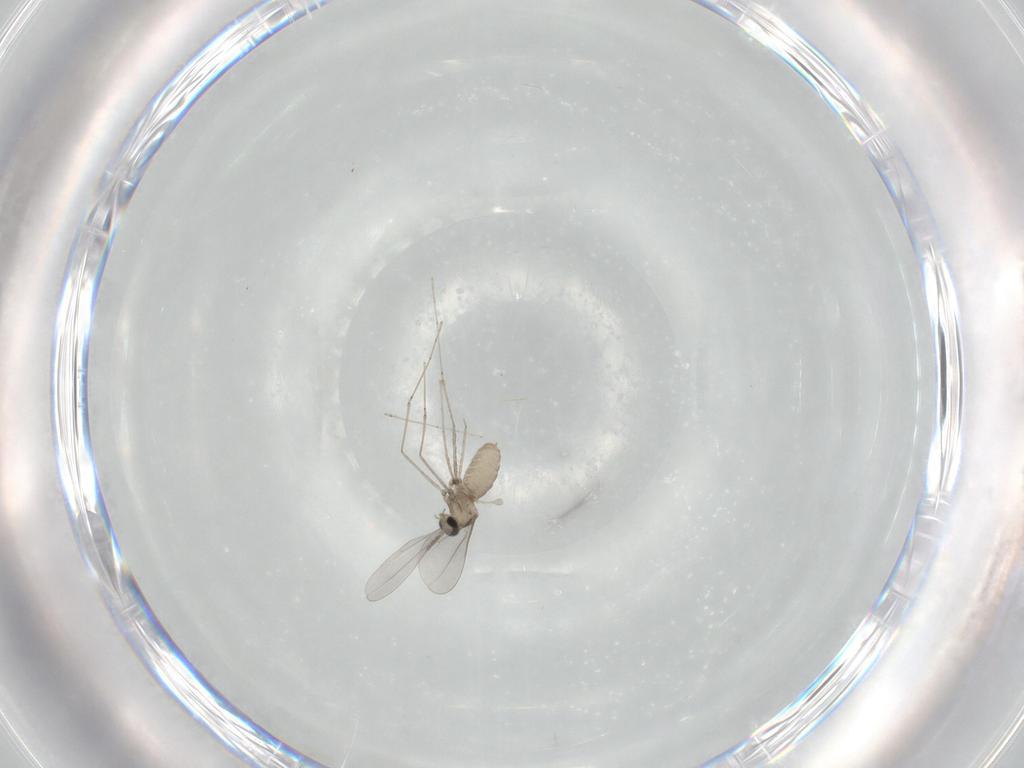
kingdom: Animalia
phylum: Arthropoda
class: Insecta
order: Diptera
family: Cecidomyiidae
